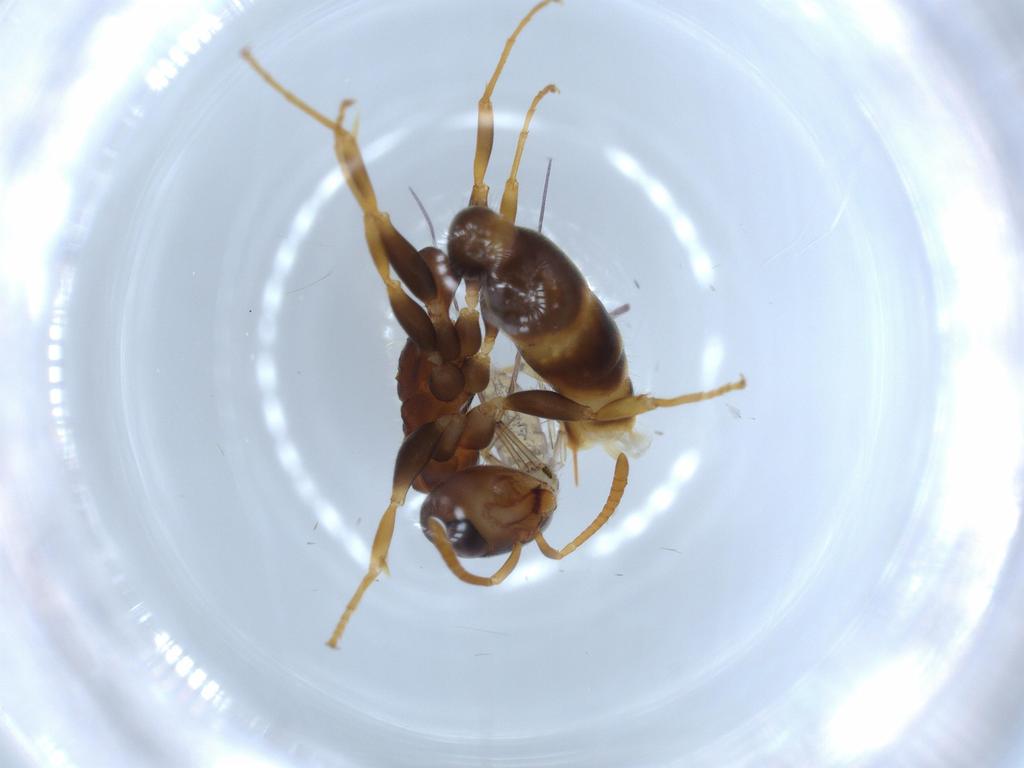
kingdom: Animalia
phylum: Arthropoda
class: Insecta
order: Hymenoptera
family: Formicidae
